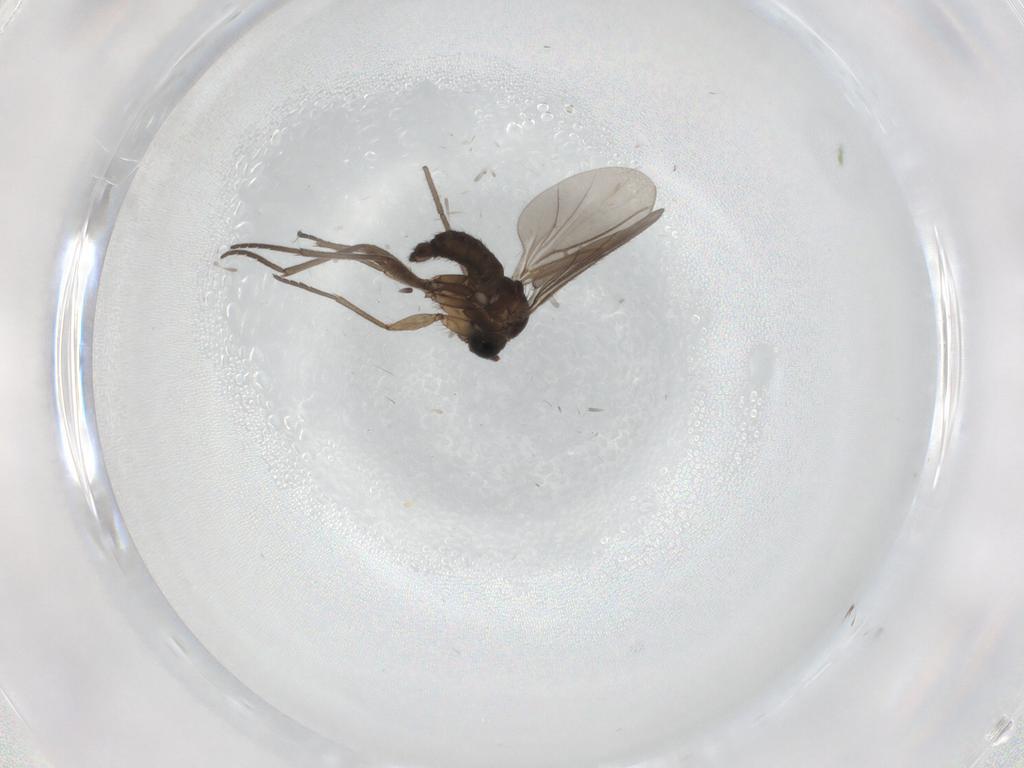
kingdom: Animalia
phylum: Arthropoda
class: Insecta
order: Diptera
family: Sciaridae
